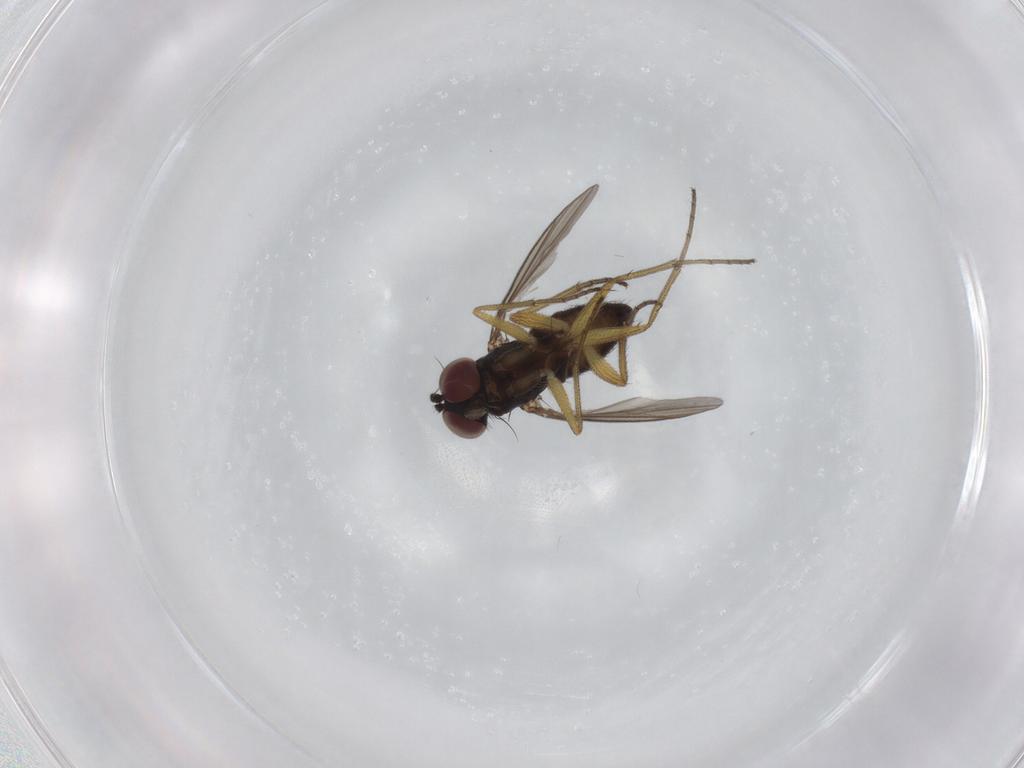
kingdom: Animalia
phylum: Arthropoda
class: Insecta
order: Diptera
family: Dolichopodidae
